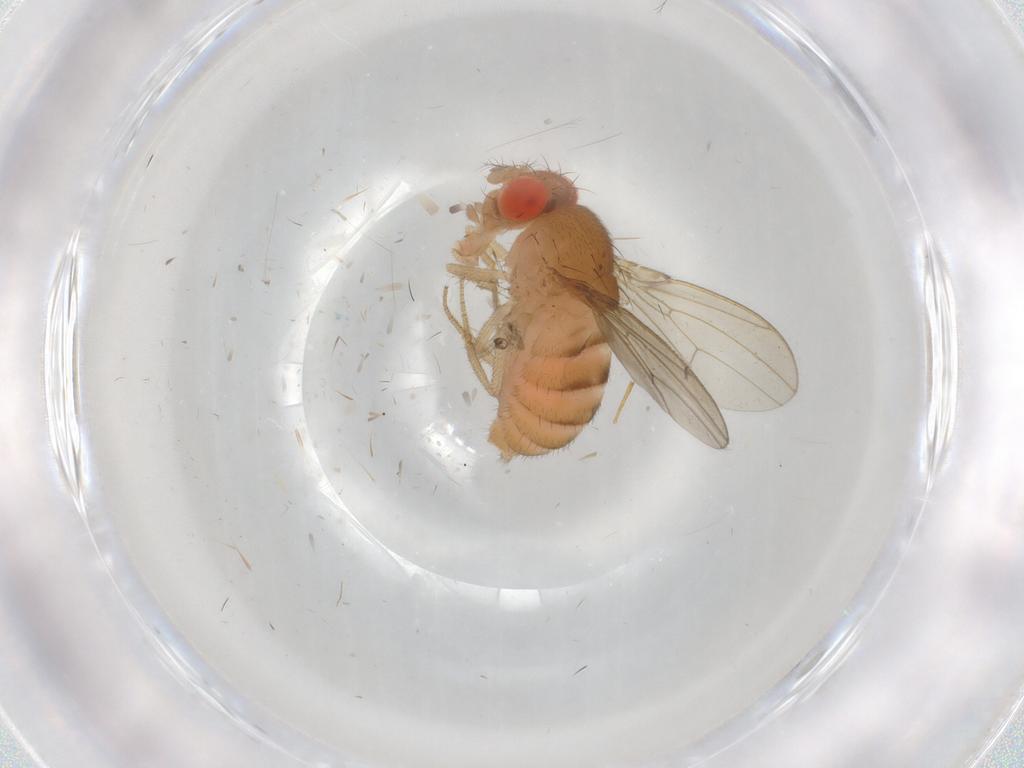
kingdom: Animalia
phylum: Arthropoda
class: Insecta
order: Diptera
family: Drosophilidae
